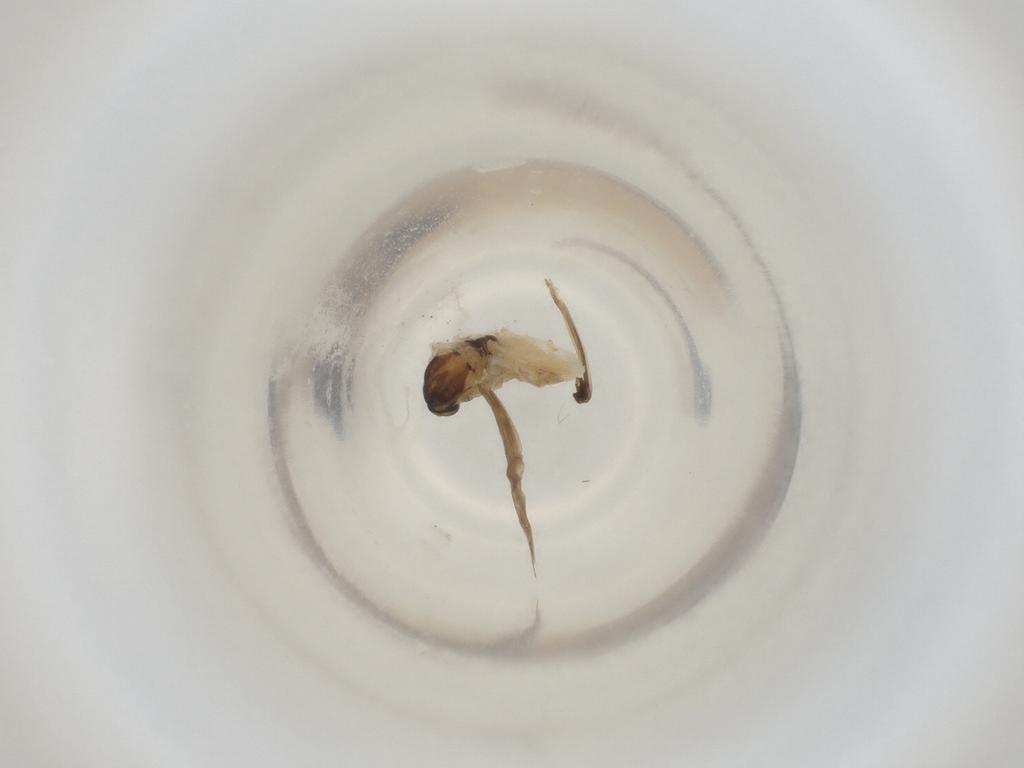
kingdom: Animalia
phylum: Arthropoda
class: Insecta
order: Diptera
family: Cecidomyiidae
